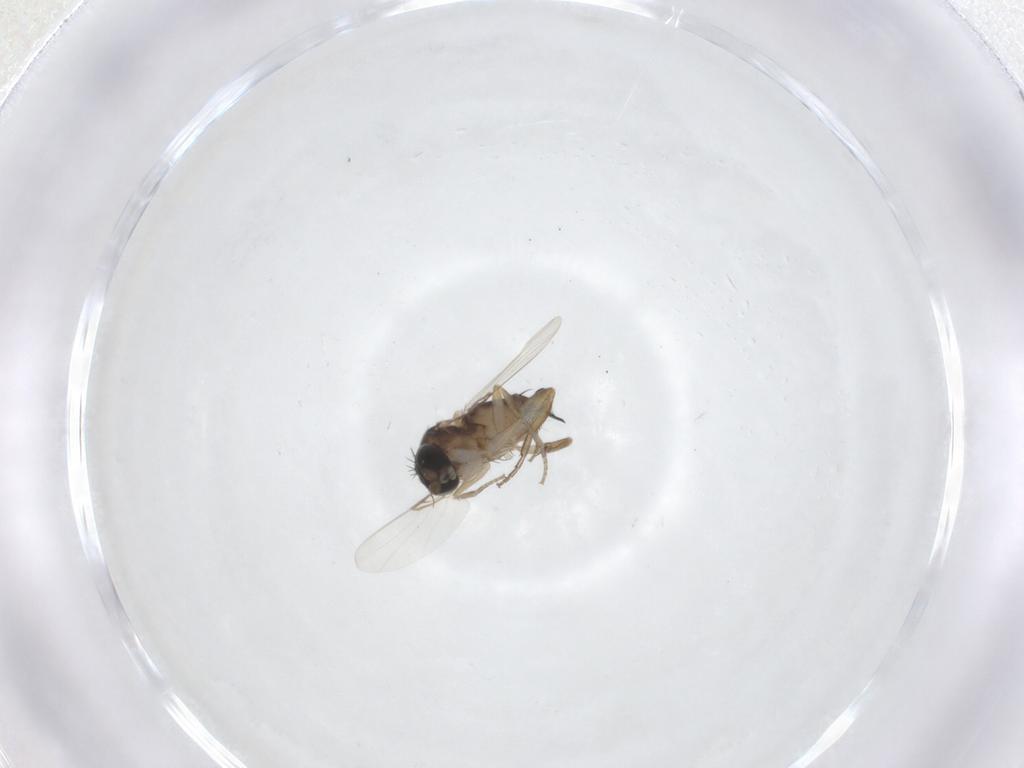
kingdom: Animalia
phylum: Arthropoda
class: Insecta
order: Diptera
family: Phoridae
